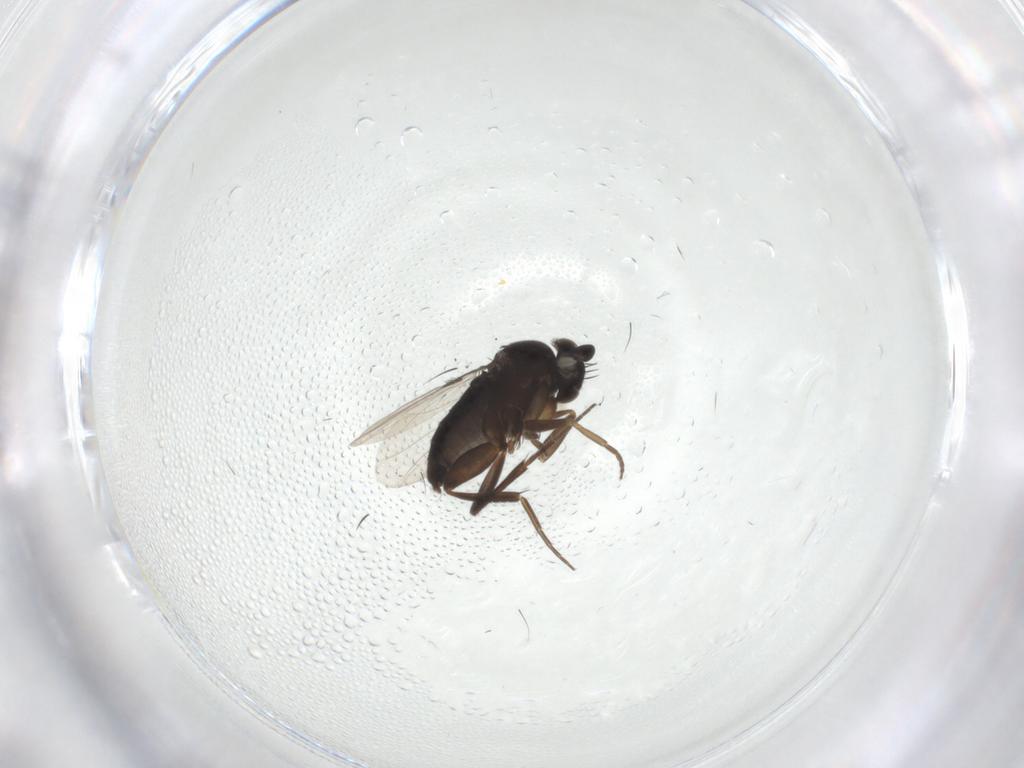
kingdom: Animalia
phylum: Arthropoda
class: Insecta
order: Diptera
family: Phoridae
